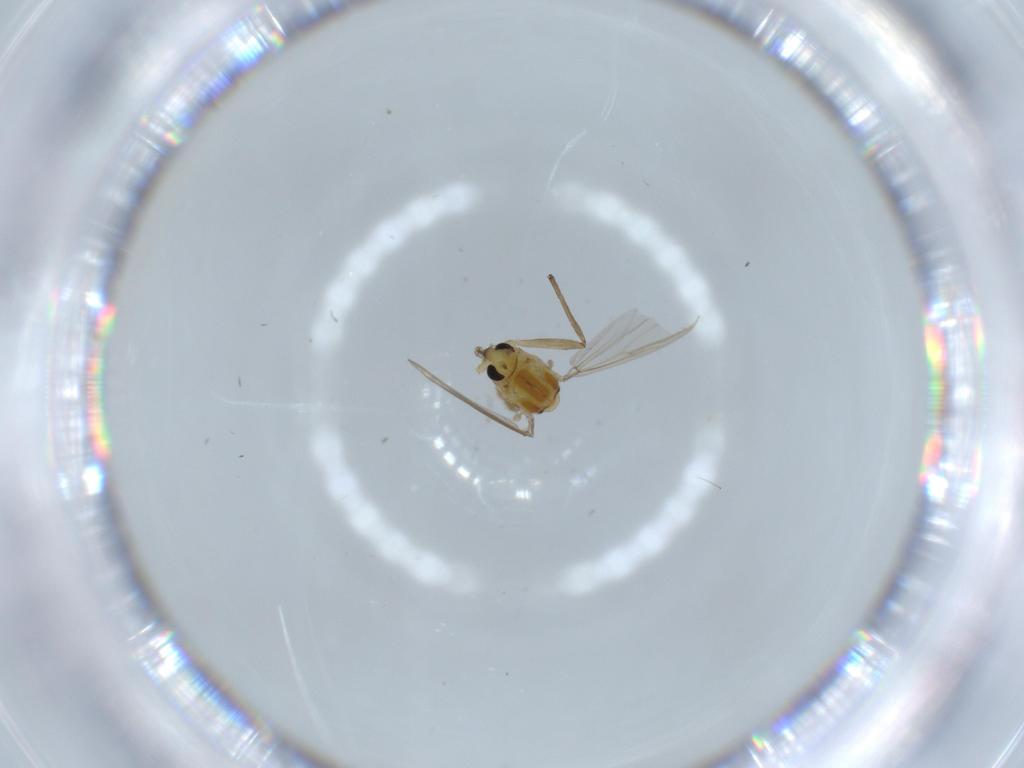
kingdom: Animalia
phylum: Arthropoda
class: Insecta
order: Diptera
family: Chironomidae
